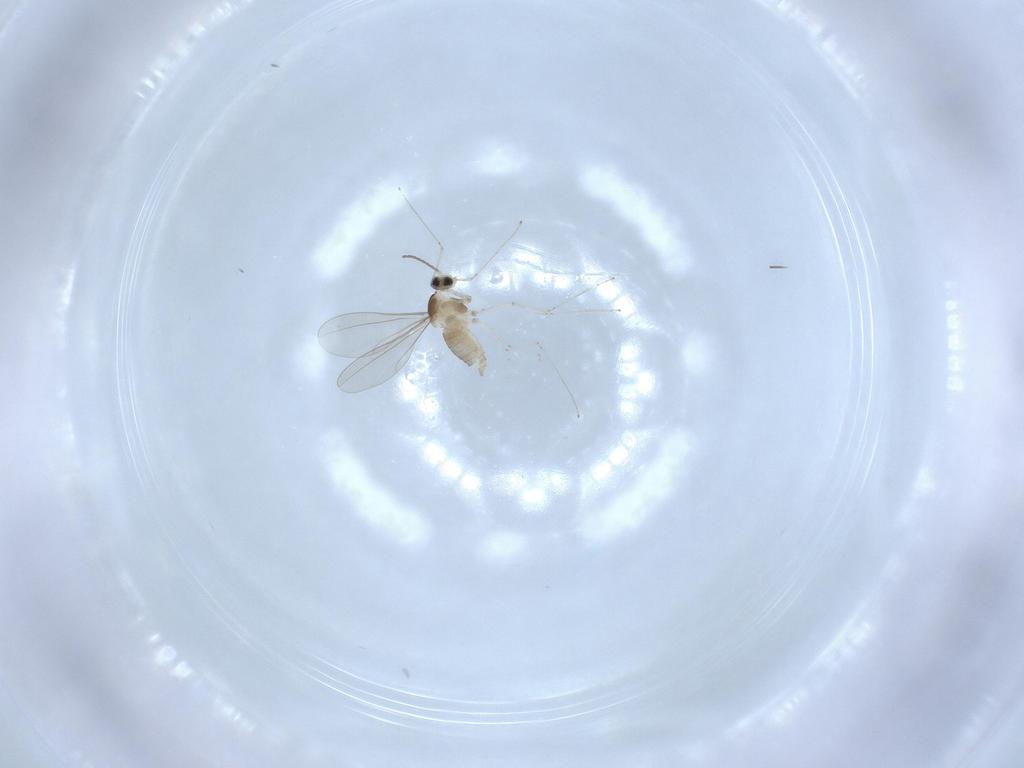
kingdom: Animalia
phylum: Arthropoda
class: Insecta
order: Diptera
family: Cecidomyiidae
